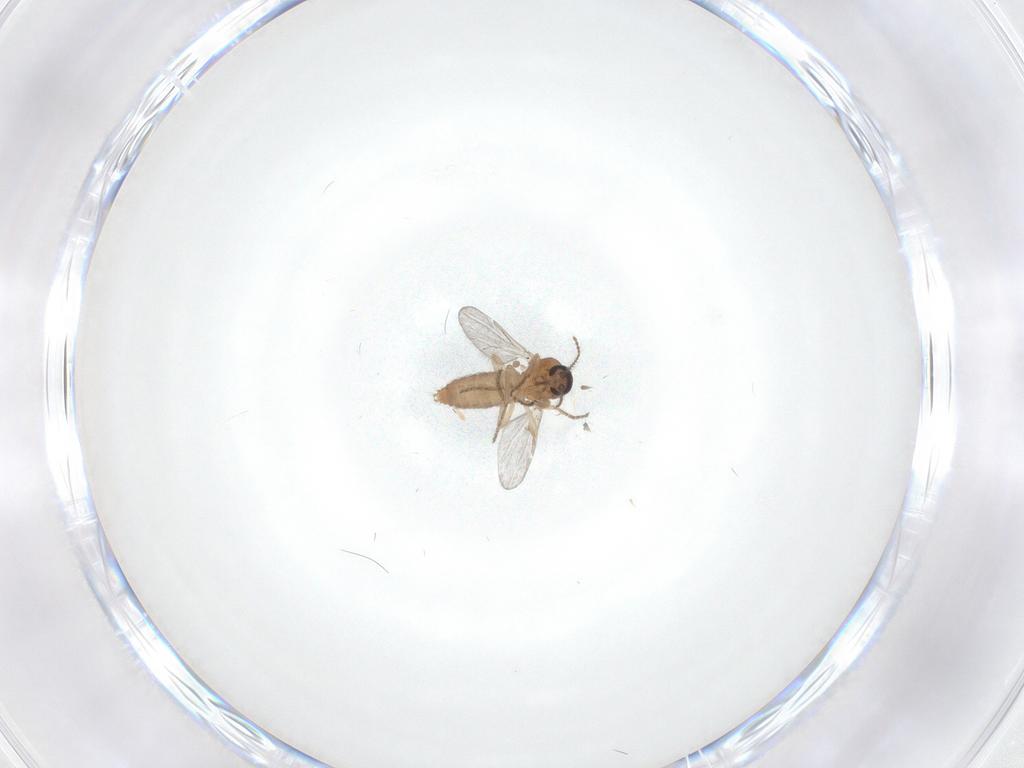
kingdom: Animalia
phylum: Arthropoda
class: Insecta
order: Diptera
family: Ceratopogonidae
